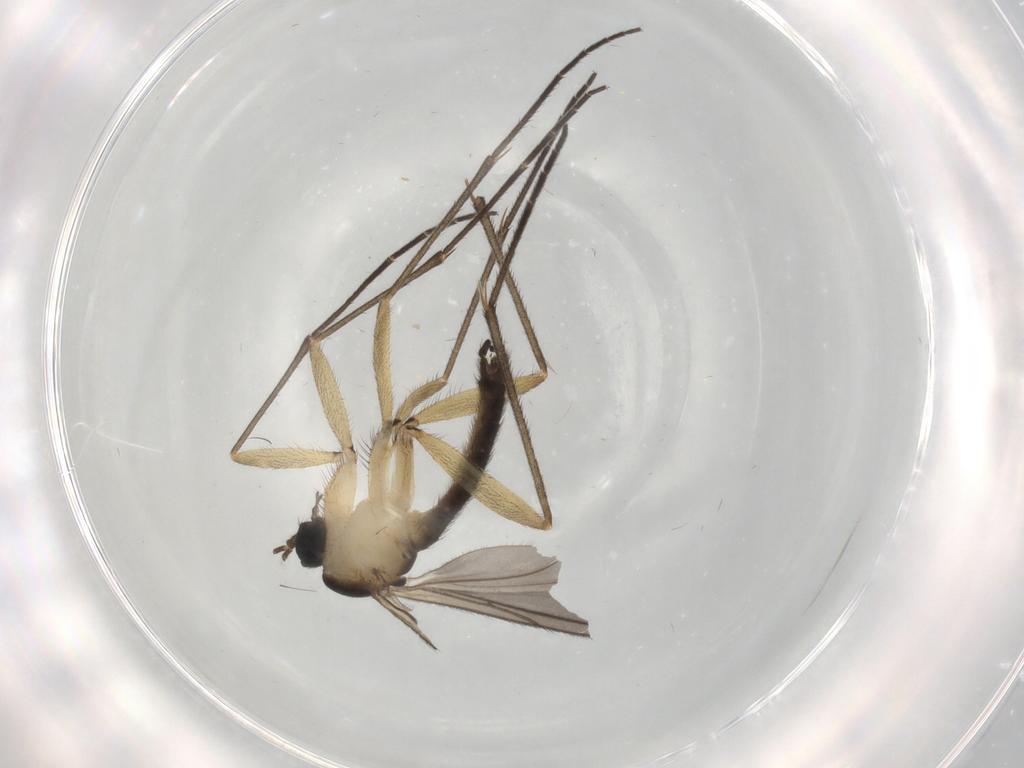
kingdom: Animalia
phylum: Arthropoda
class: Insecta
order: Diptera
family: Sciaridae
